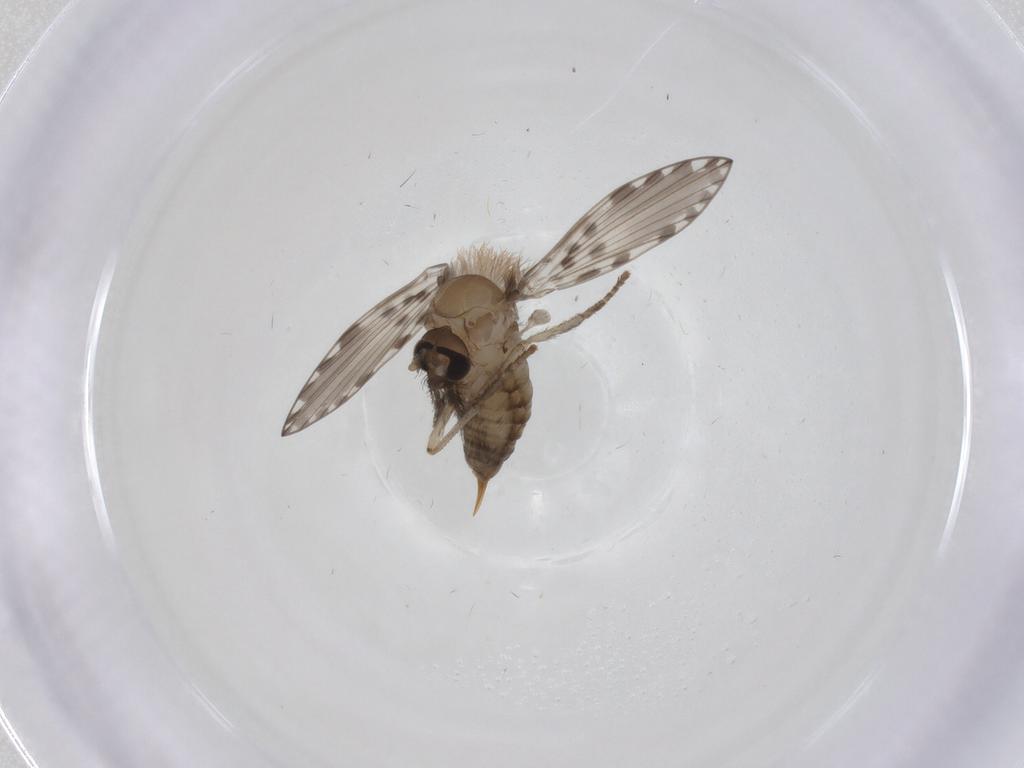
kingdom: Animalia
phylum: Arthropoda
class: Insecta
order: Diptera
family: Psychodidae
